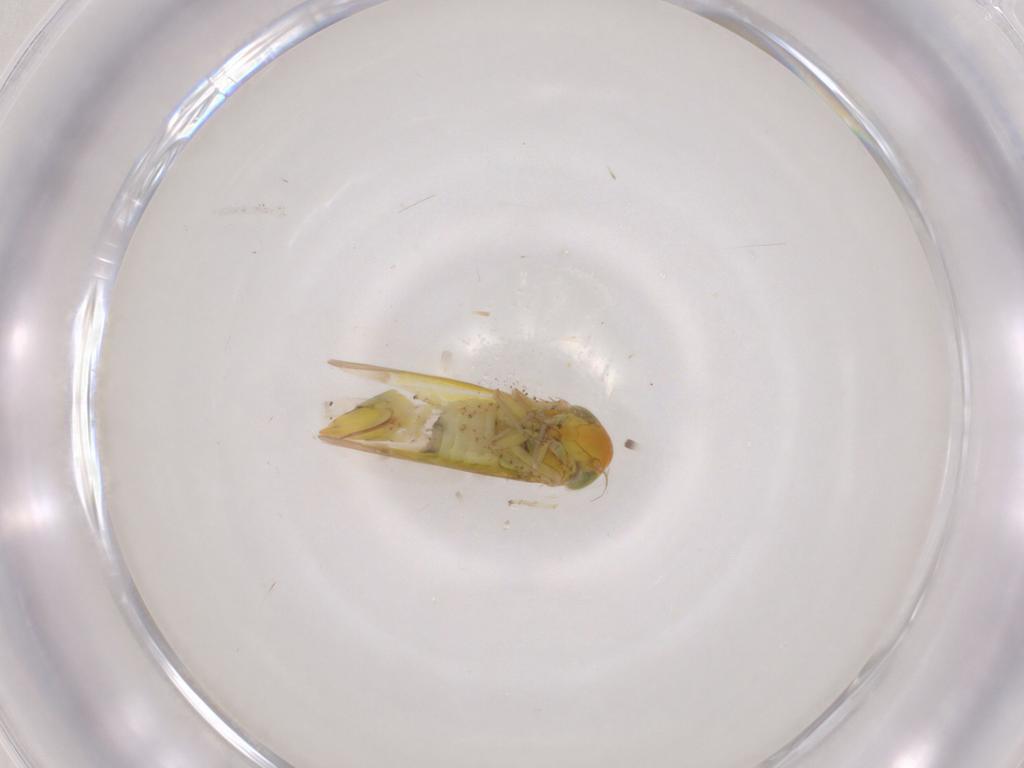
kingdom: Animalia
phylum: Arthropoda
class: Insecta
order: Hemiptera
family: Cicadellidae
